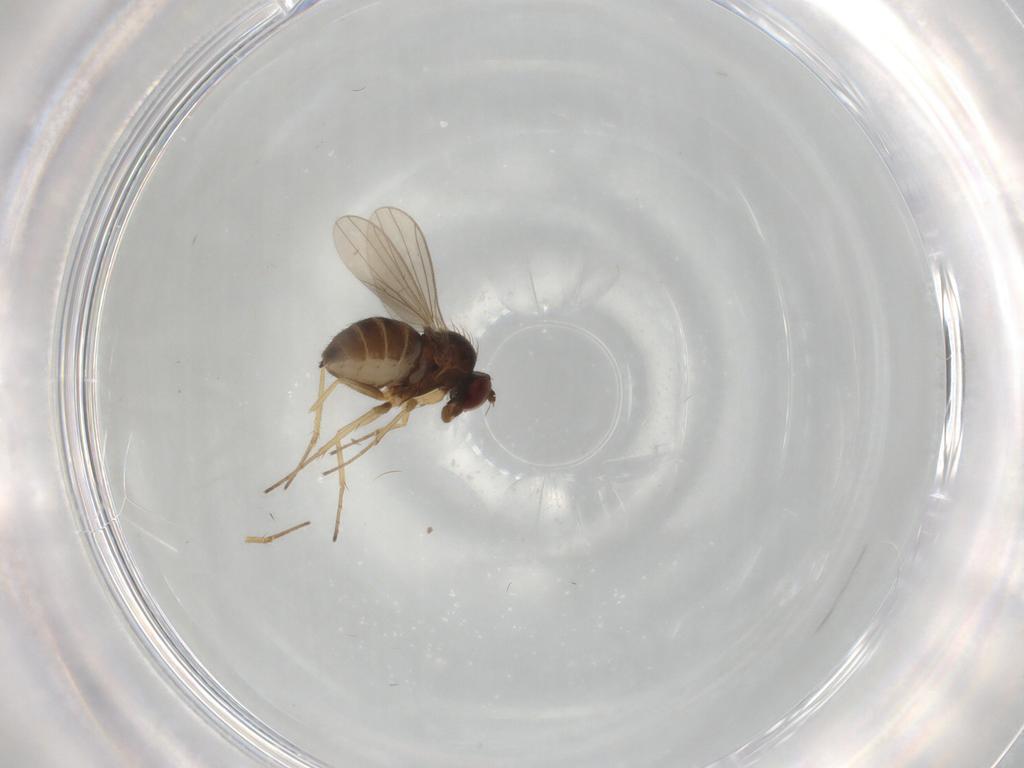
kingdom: Animalia
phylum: Arthropoda
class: Insecta
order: Diptera
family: Dolichopodidae
